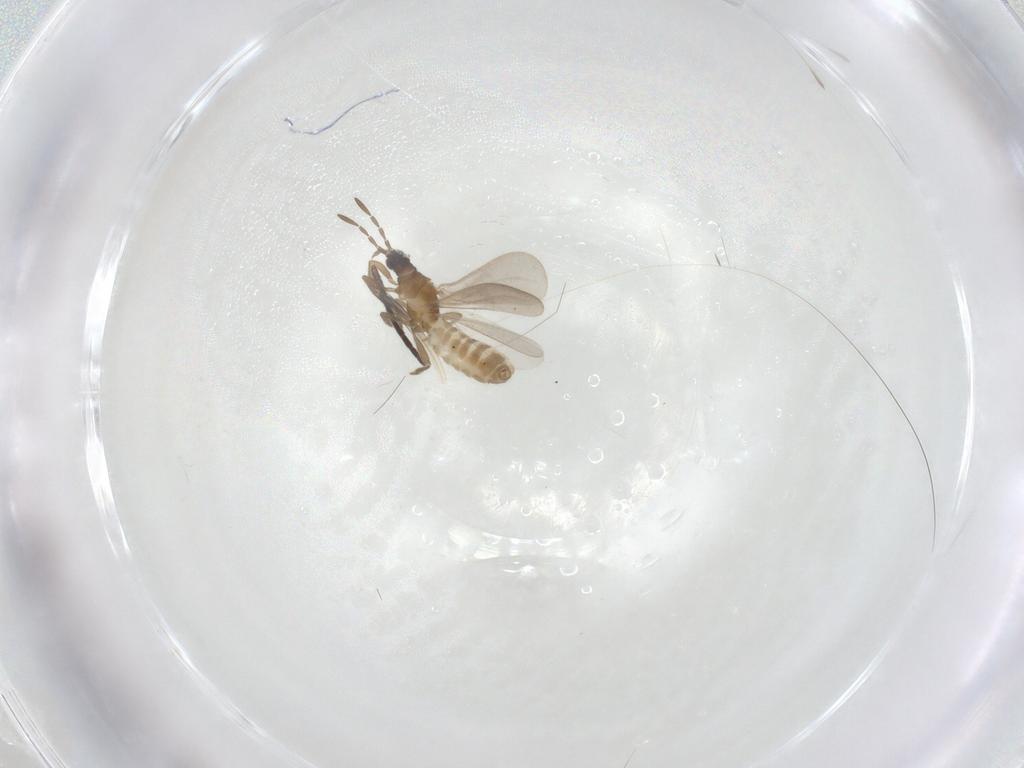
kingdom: Animalia
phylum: Arthropoda
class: Insecta
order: Diptera
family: Cecidomyiidae
